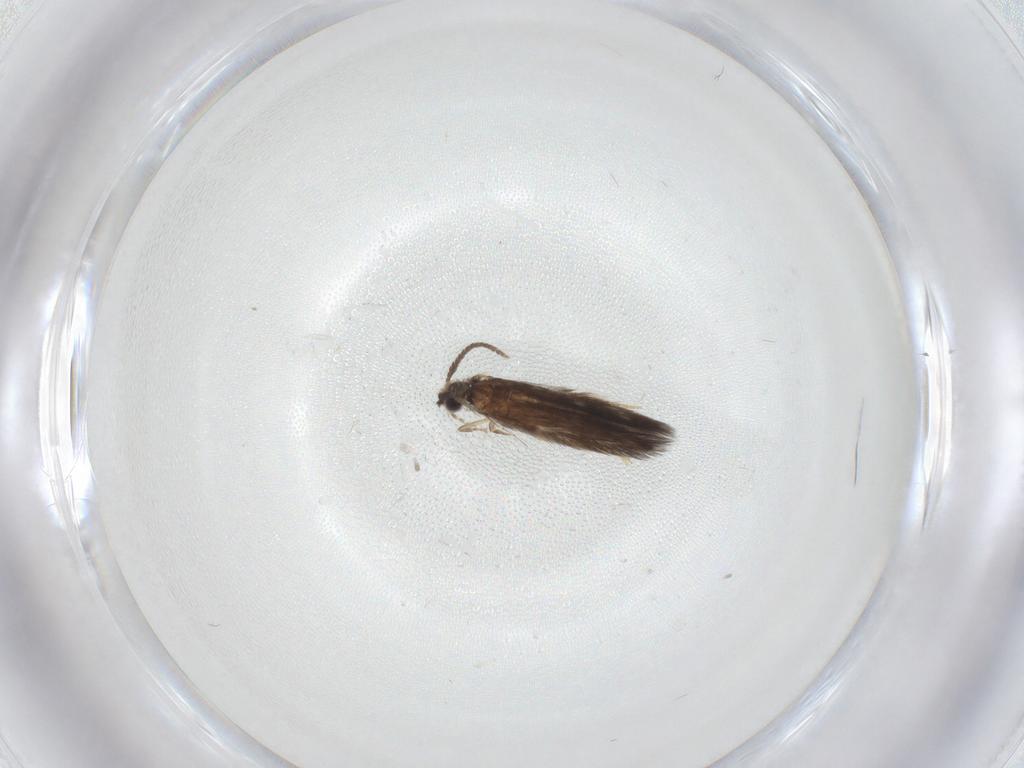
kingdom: Animalia
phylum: Arthropoda
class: Insecta
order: Trichoptera
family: Hydroptilidae
